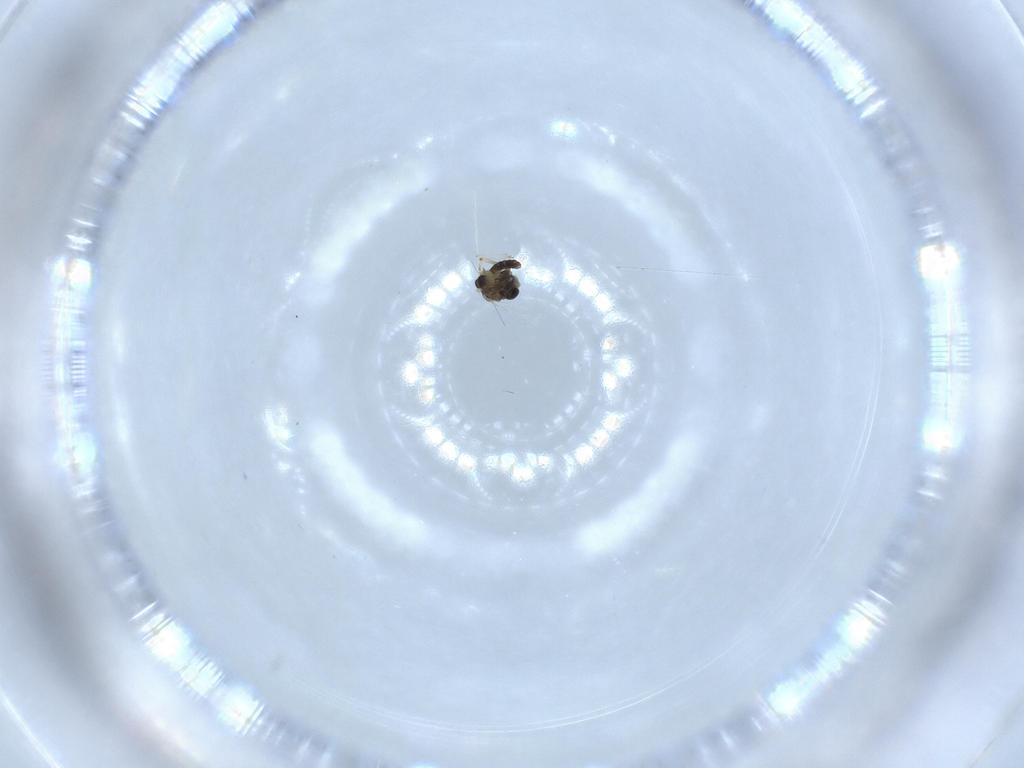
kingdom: Animalia
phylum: Arthropoda
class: Insecta
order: Diptera
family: Chironomidae
